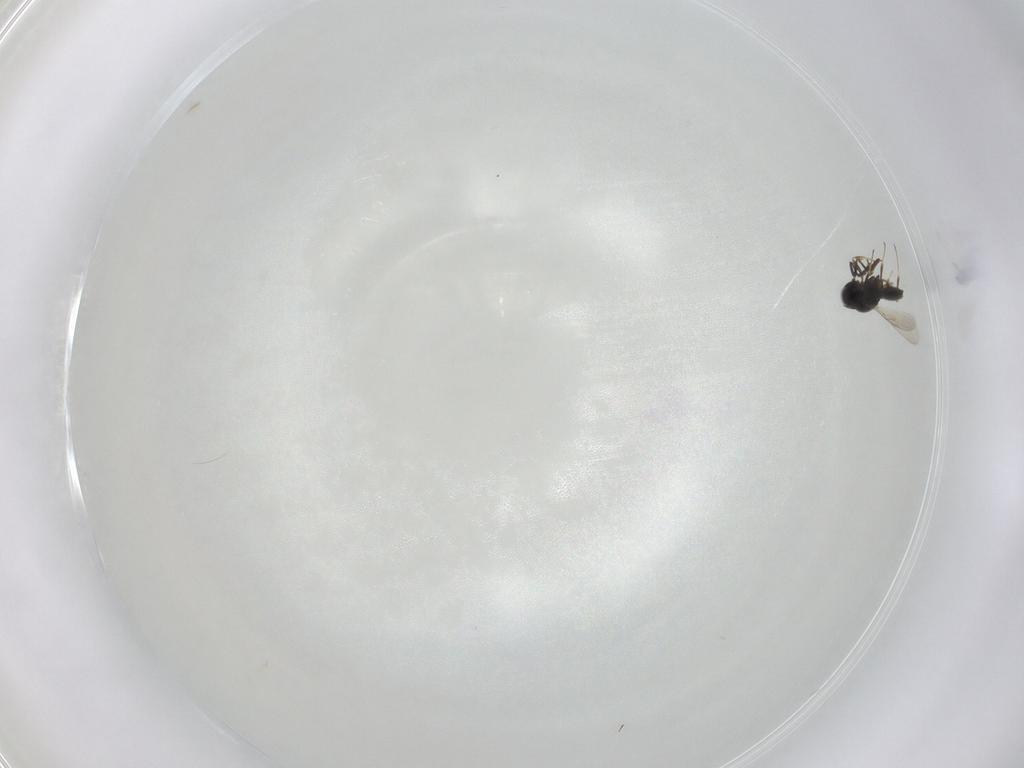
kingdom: Animalia
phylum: Arthropoda
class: Insecta
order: Hymenoptera
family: Scelionidae
